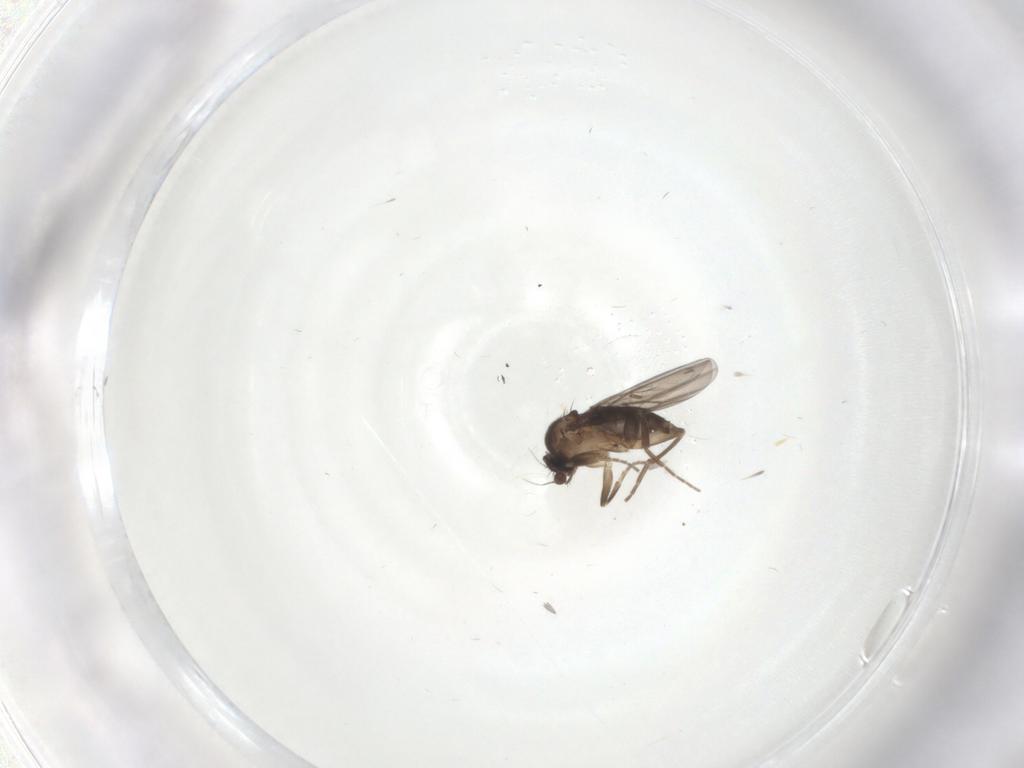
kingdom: Animalia
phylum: Arthropoda
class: Insecta
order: Diptera
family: Phoridae
